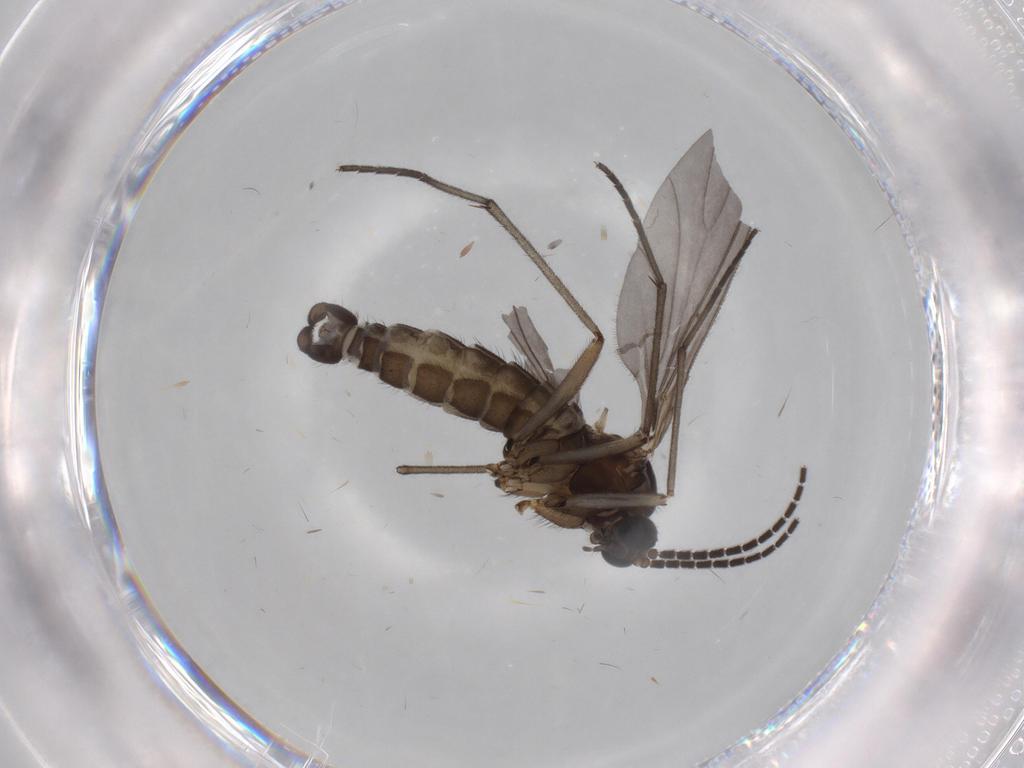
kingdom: Animalia
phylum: Arthropoda
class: Insecta
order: Diptera
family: Sciaridae
